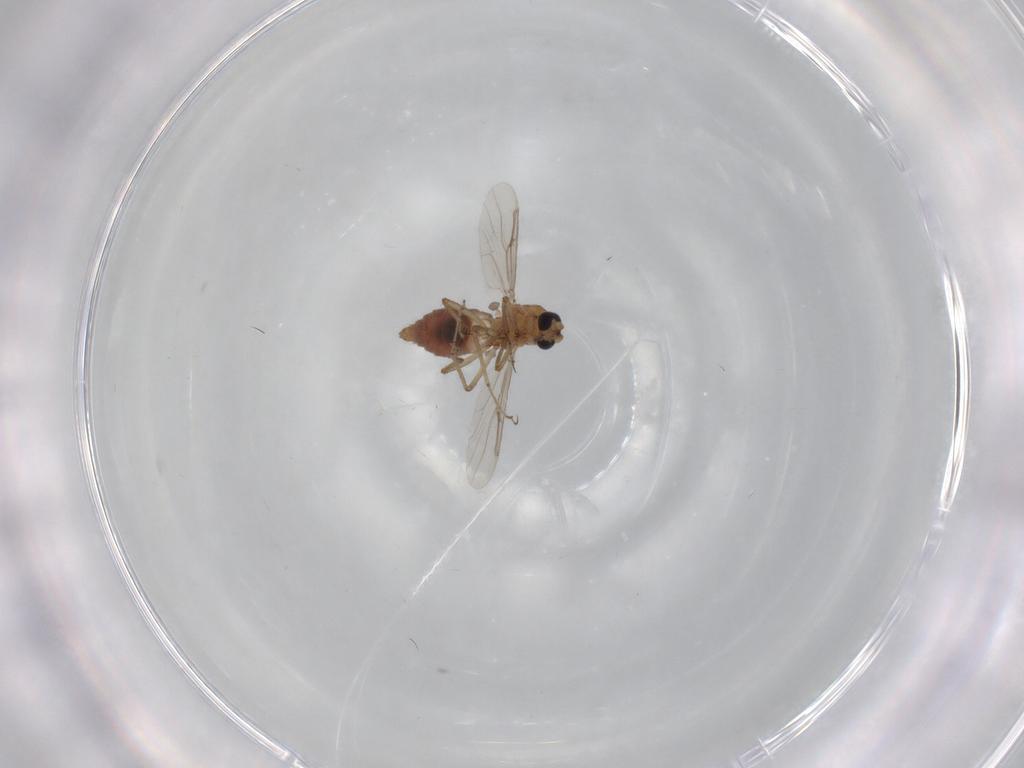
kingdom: Animalia
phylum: Arthropoda
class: Insecta
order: Diptera
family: Ceratopogonidae
